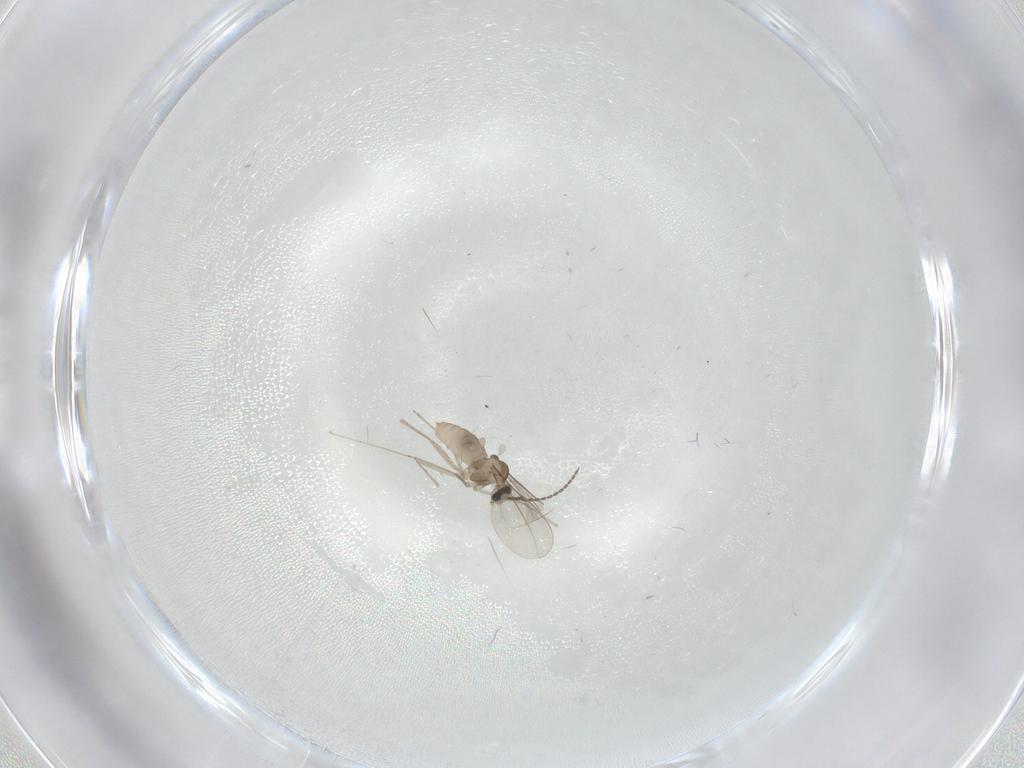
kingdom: Animalia
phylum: Arthropoda
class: Insecta
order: Diptera
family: Cecidomyiidae
